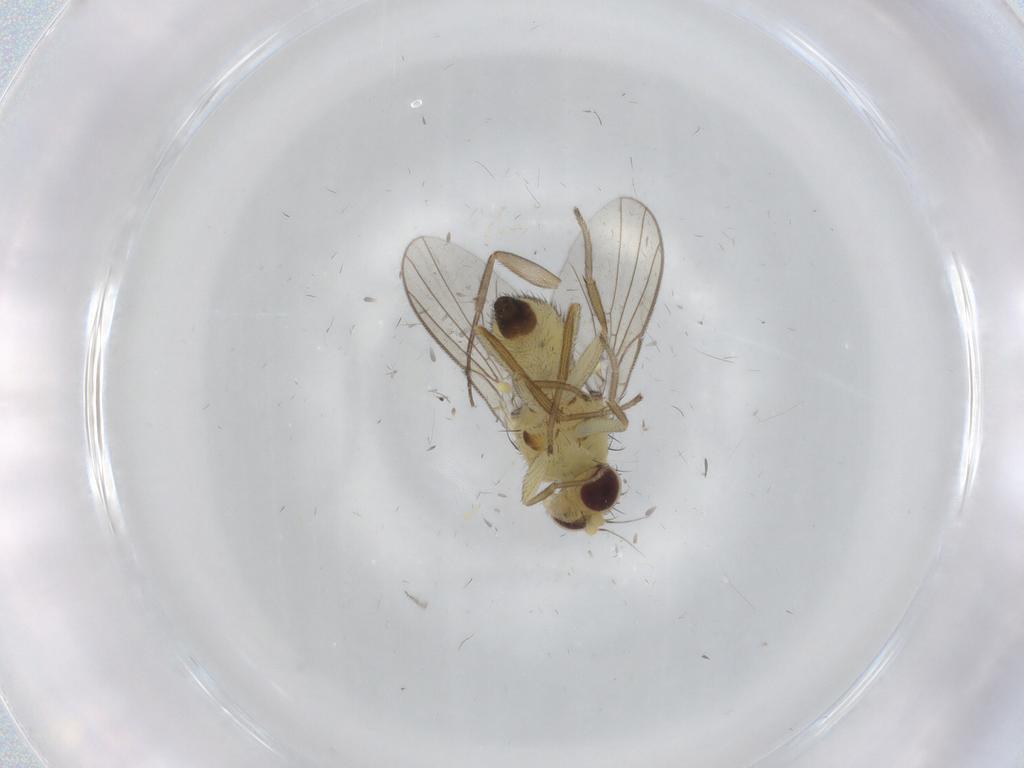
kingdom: Animalia
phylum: Arthropoda
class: Insecta
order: Diptera
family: Agromyzidae
